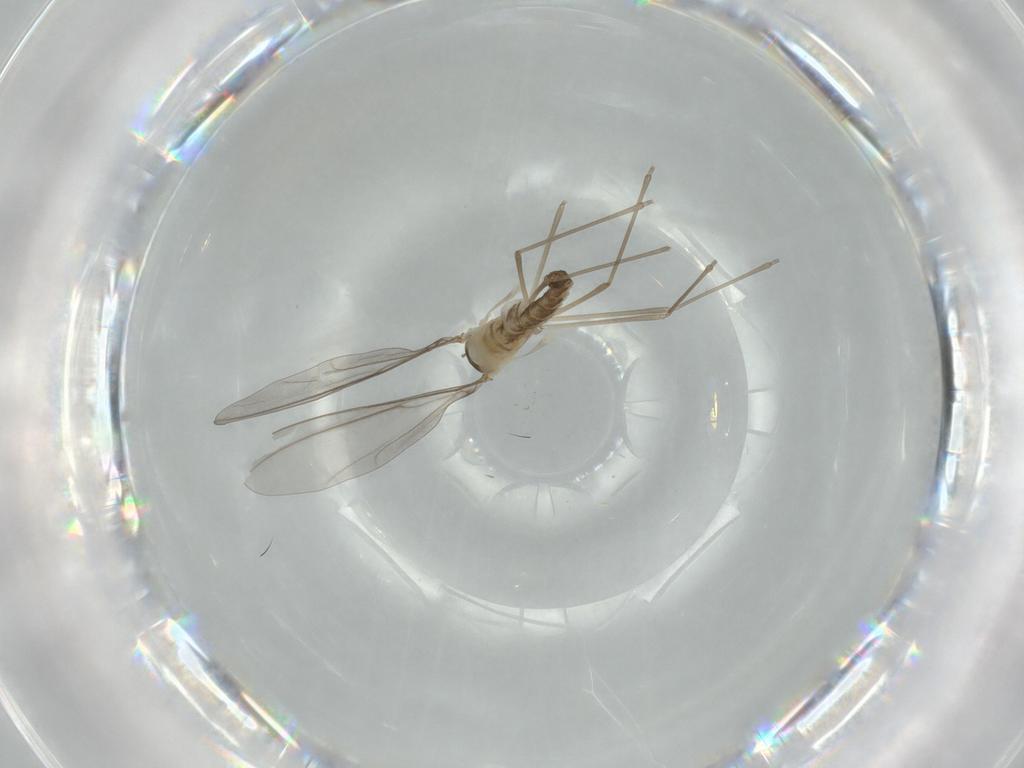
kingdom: Animalia
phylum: Arthropoda
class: Insecta
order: Diptera
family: Cecidomyiidae
